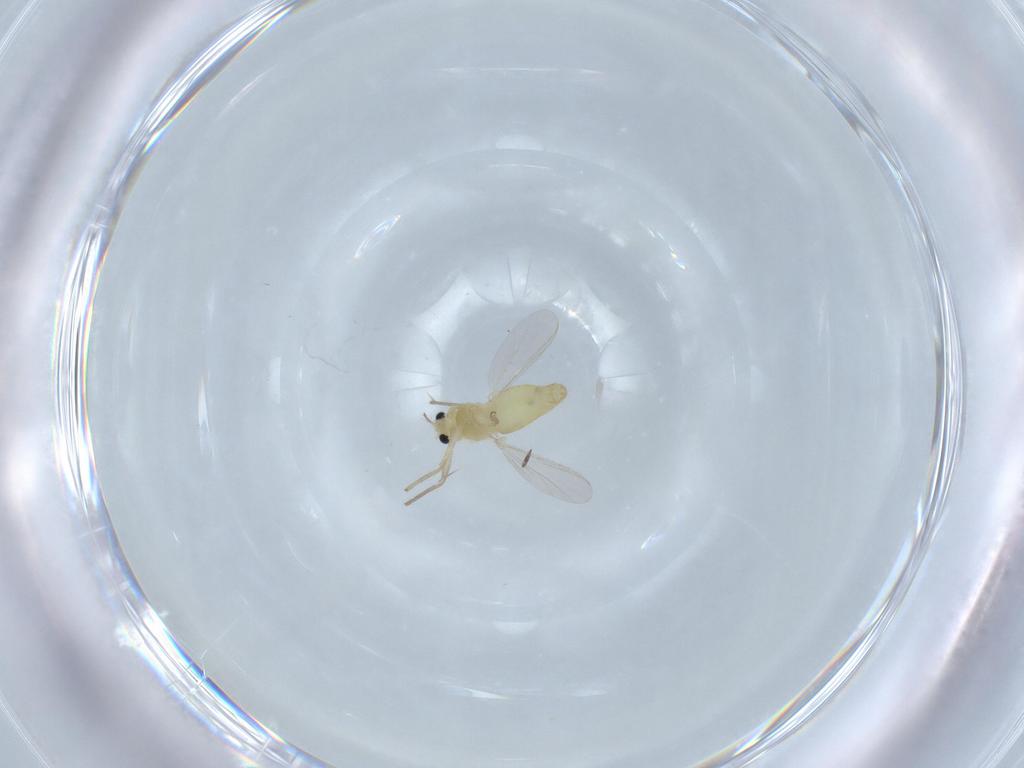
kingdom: Animalia
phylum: Arthropoda
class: Insecta
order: Diptera
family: Chironomidae
